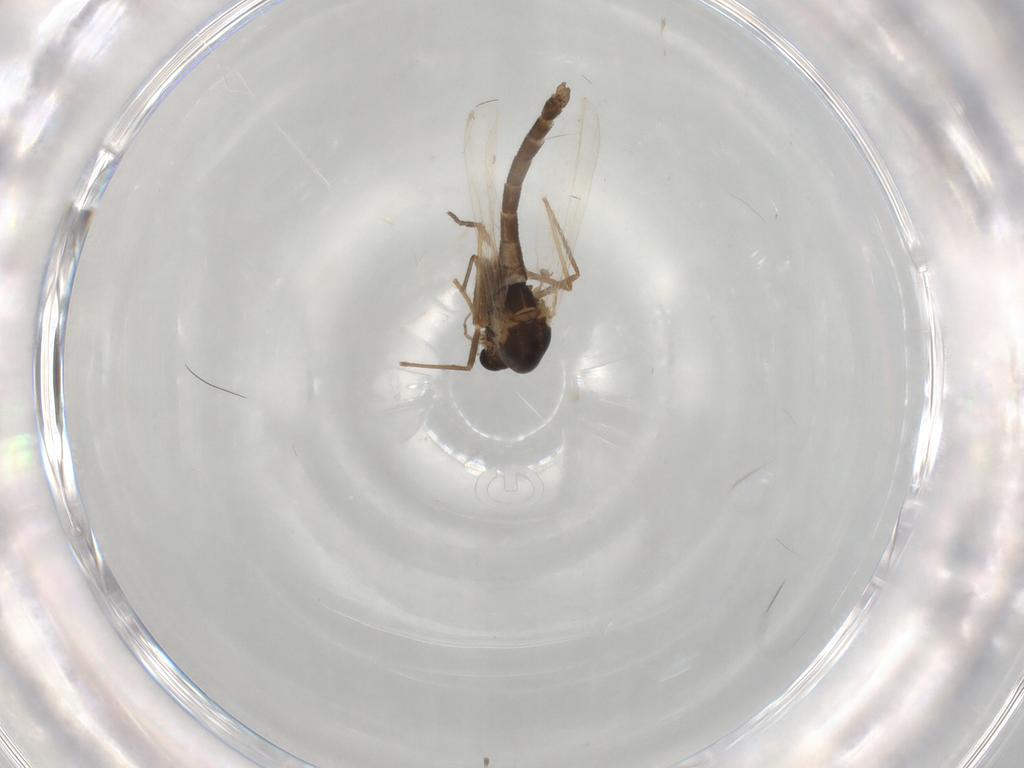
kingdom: Animalia
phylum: Arthropoda
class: Insecta
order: Diptera
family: Chironomidae
